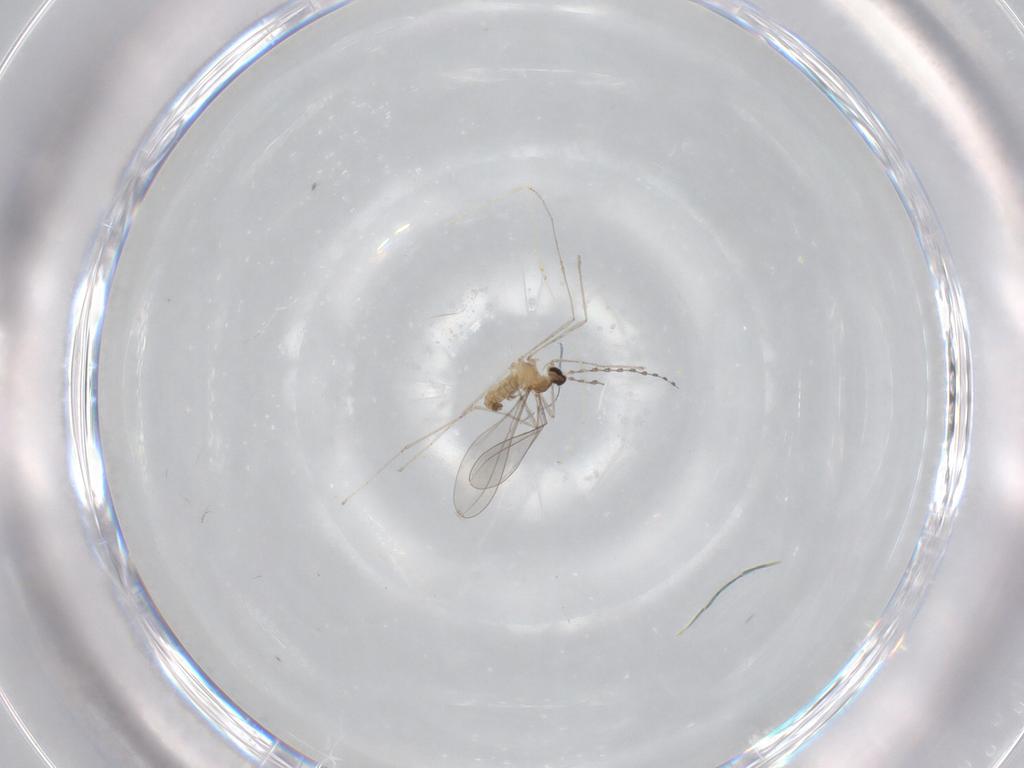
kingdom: Animalia
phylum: Arthropoda
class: Insecta
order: Diptera
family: Cecidomyiidae
